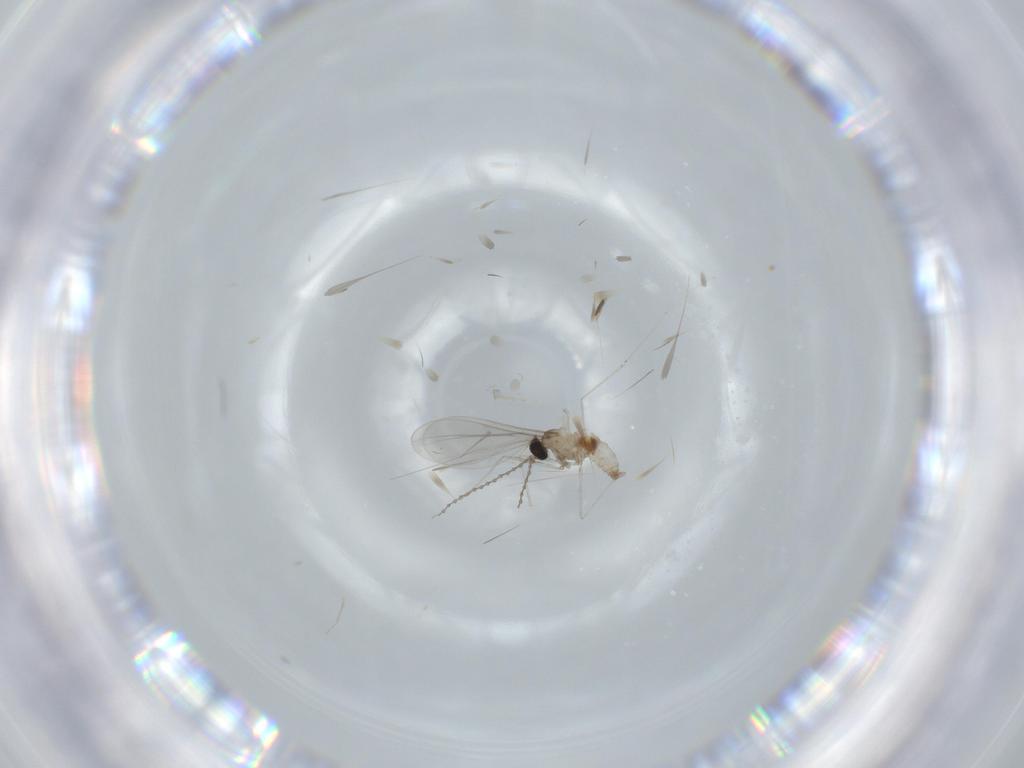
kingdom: Animalia
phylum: Arthropoda
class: Insecta
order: Diptera
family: Cecidomyiidae
